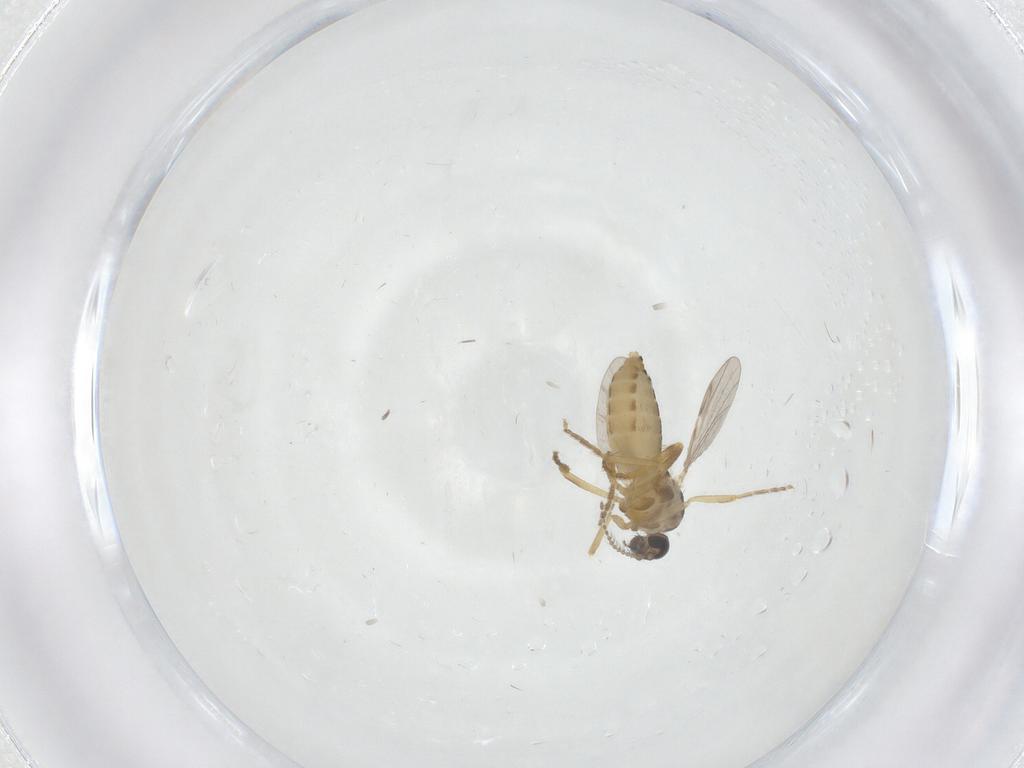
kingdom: Animalia
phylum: Arthropoda
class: Insecta
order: Diptera
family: Ceratopogonidae
